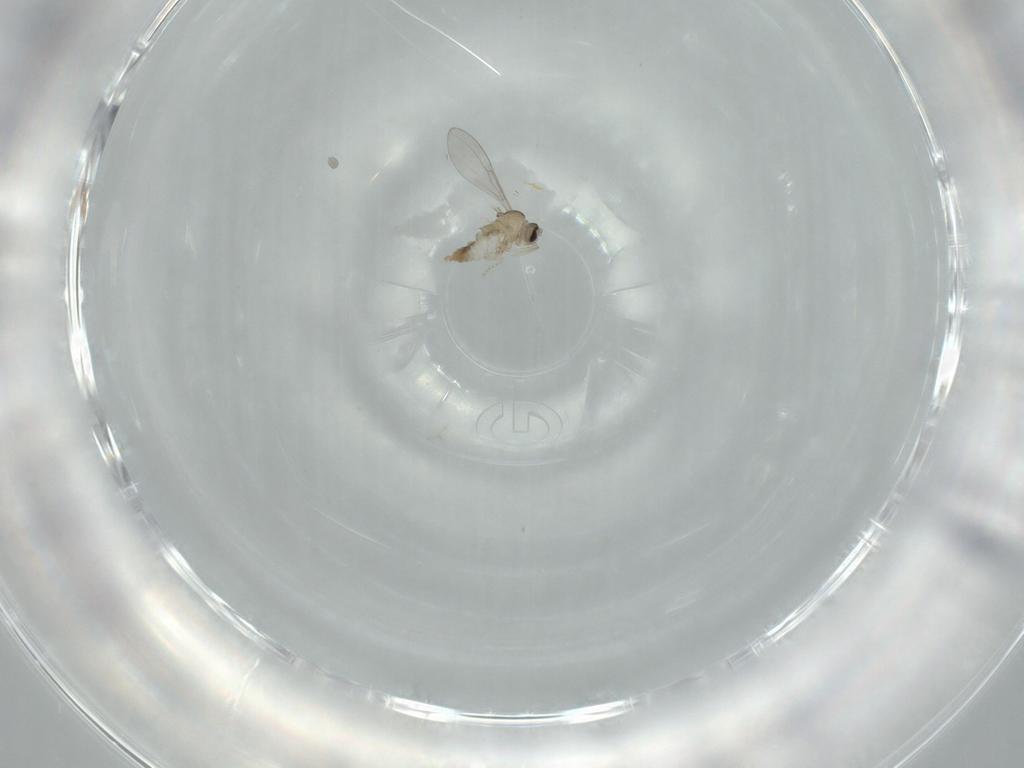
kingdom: Animalia
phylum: Arthropoda
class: Insecta
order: Diptera
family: Cecidomyiidae
